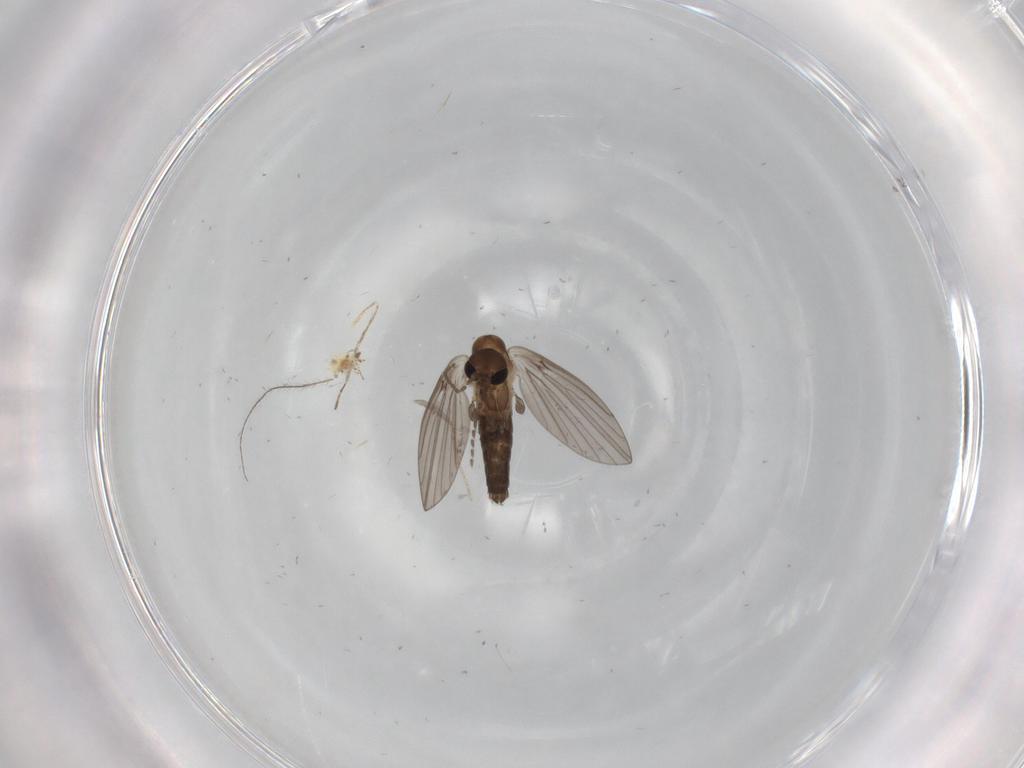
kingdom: Animalia
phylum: Arthropoda
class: Insecta
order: Diptera
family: Psychodidae
